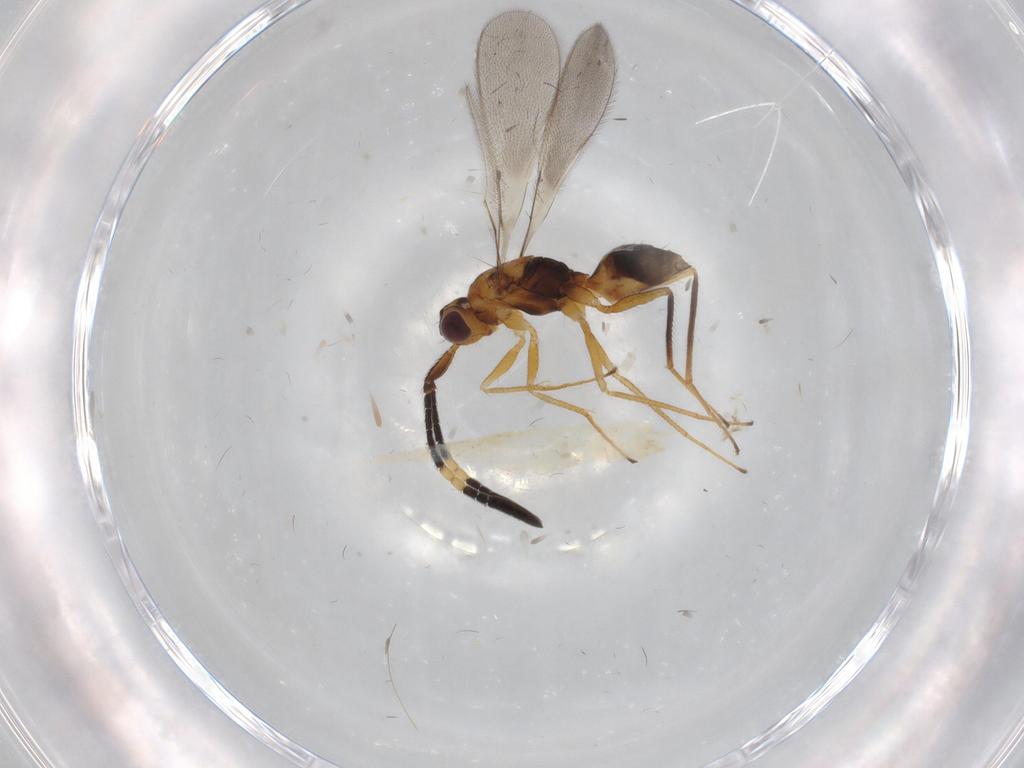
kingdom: Animalia
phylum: Arthropoda
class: Insecta
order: Hymenoptera
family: Mymaridae
